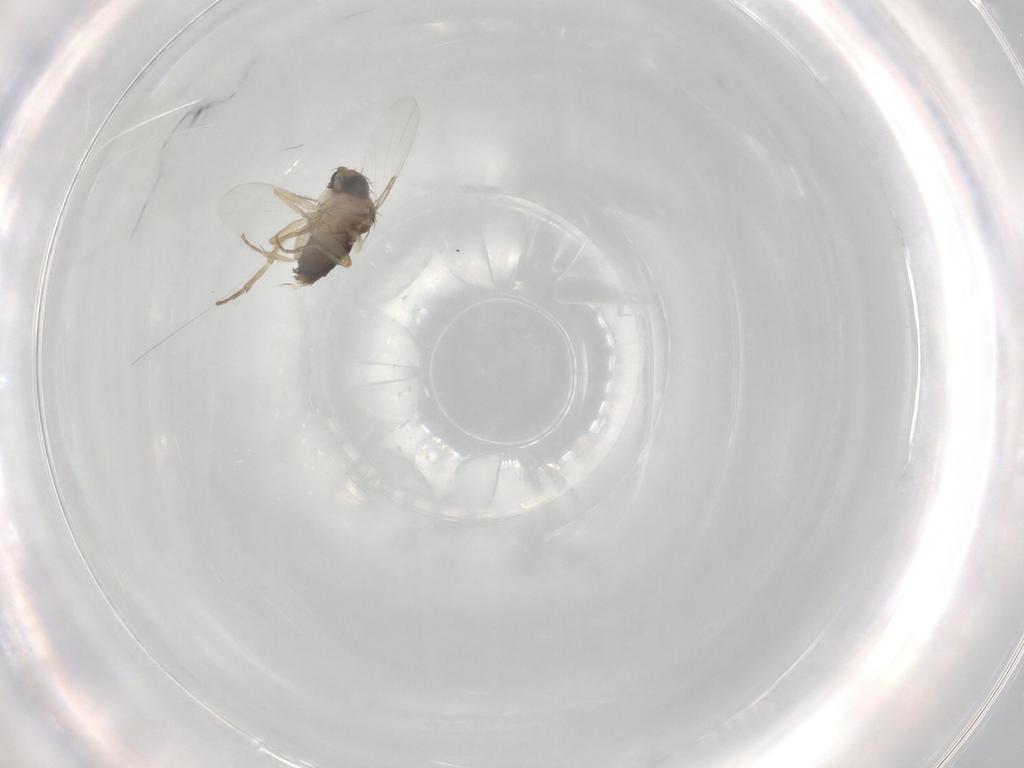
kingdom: Animalia
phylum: Arthropoda
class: Insecta
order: Diptera
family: Phoridae
